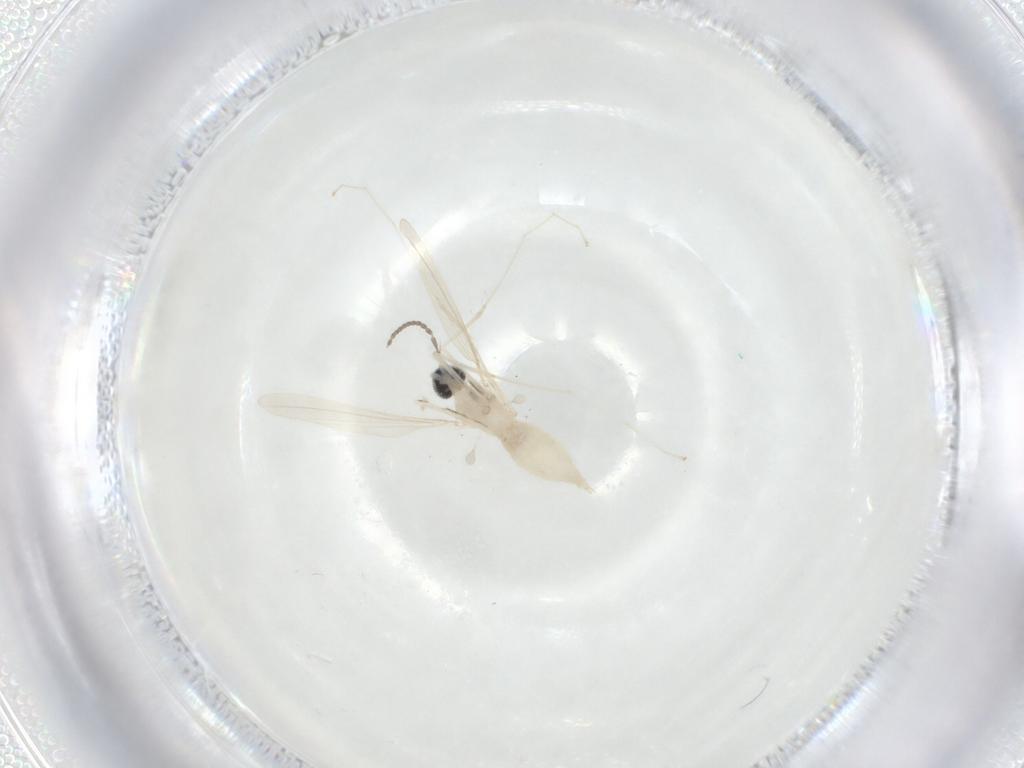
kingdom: Animalia
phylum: Arthropoda
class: Insecta
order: Diptera
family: Cecidomyiidae
